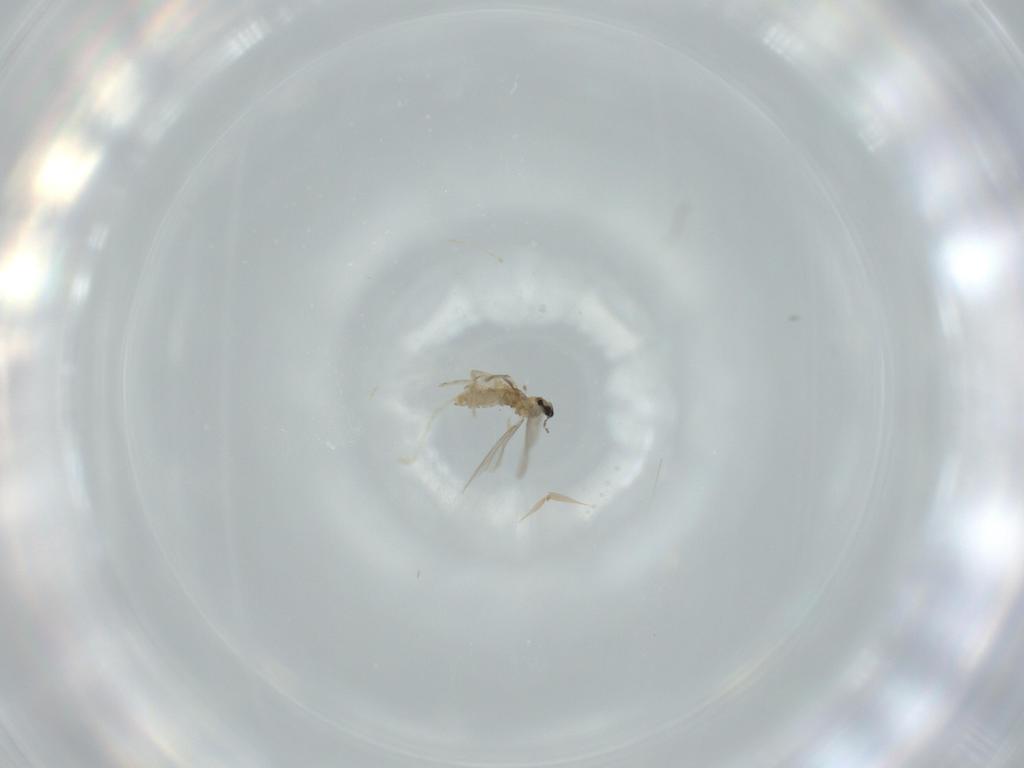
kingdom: Animalia
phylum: Arthropoda
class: Insecta
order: Diptera
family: Cecidomyiidae
